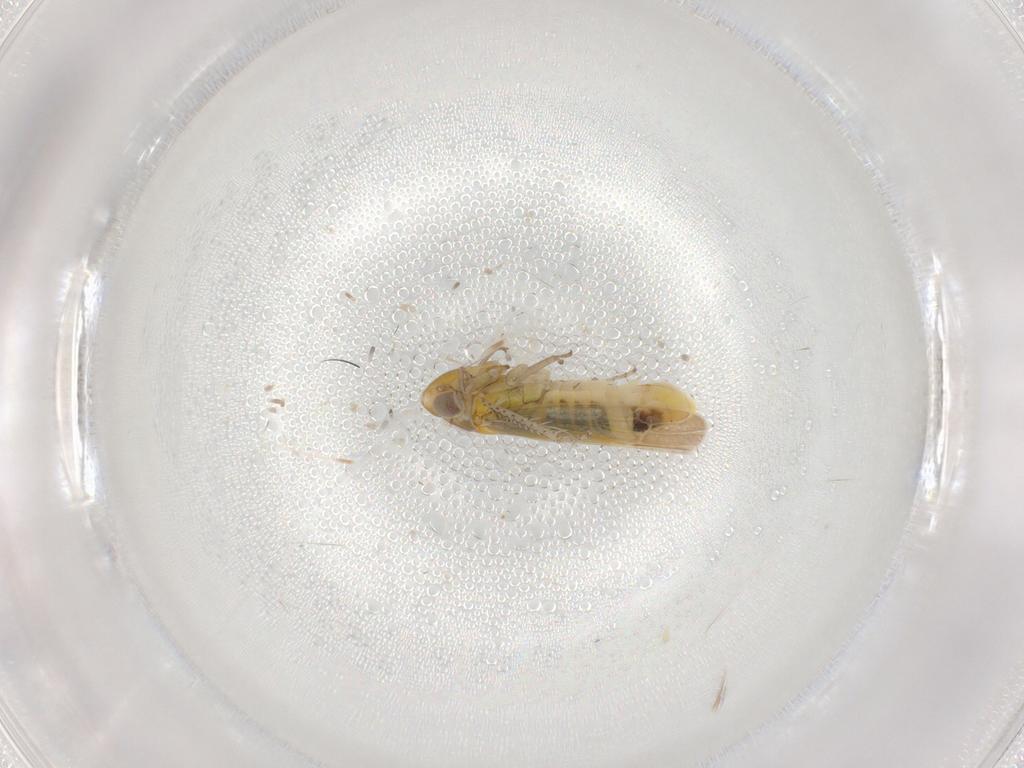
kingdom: Animalia
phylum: Arthropoda
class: Insecta
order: Hemiptera
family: Cicadellidae
